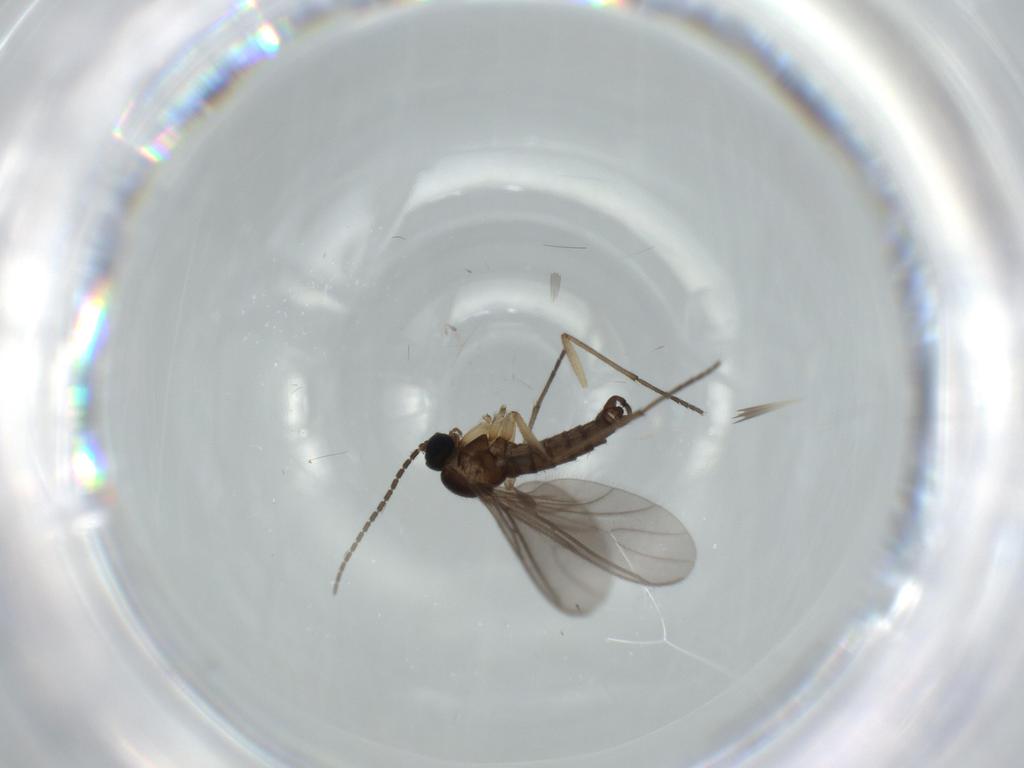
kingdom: Animalia
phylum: Arthropoda
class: Insecta
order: Diptera
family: Sciaridae
